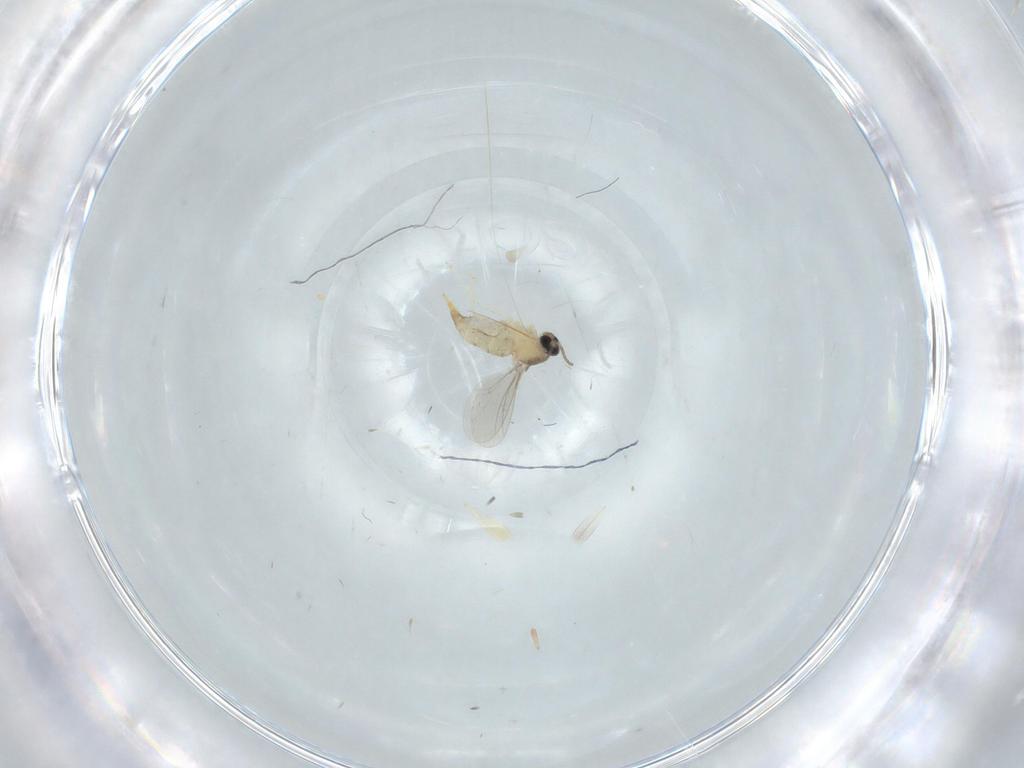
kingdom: Animalia
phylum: Arthropoda
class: Insecta
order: Diptera
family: Cecidomyiidae
